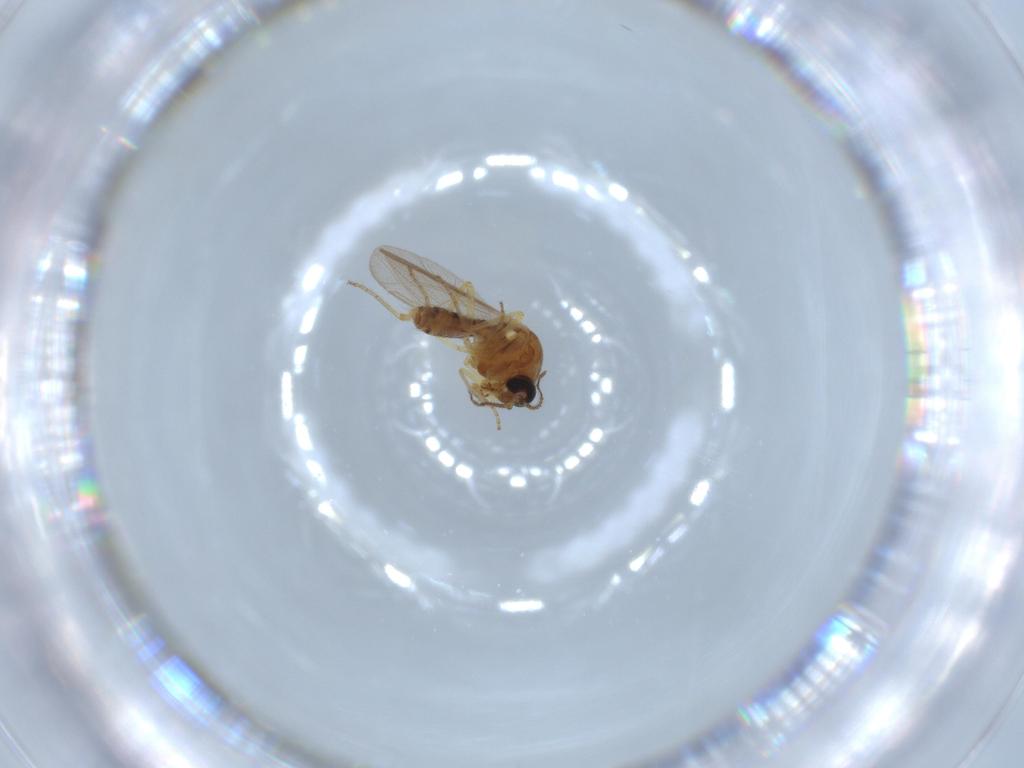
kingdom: Animalia
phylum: Arthropoda
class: Insecta
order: Diptera
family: Ceratopogonidae
